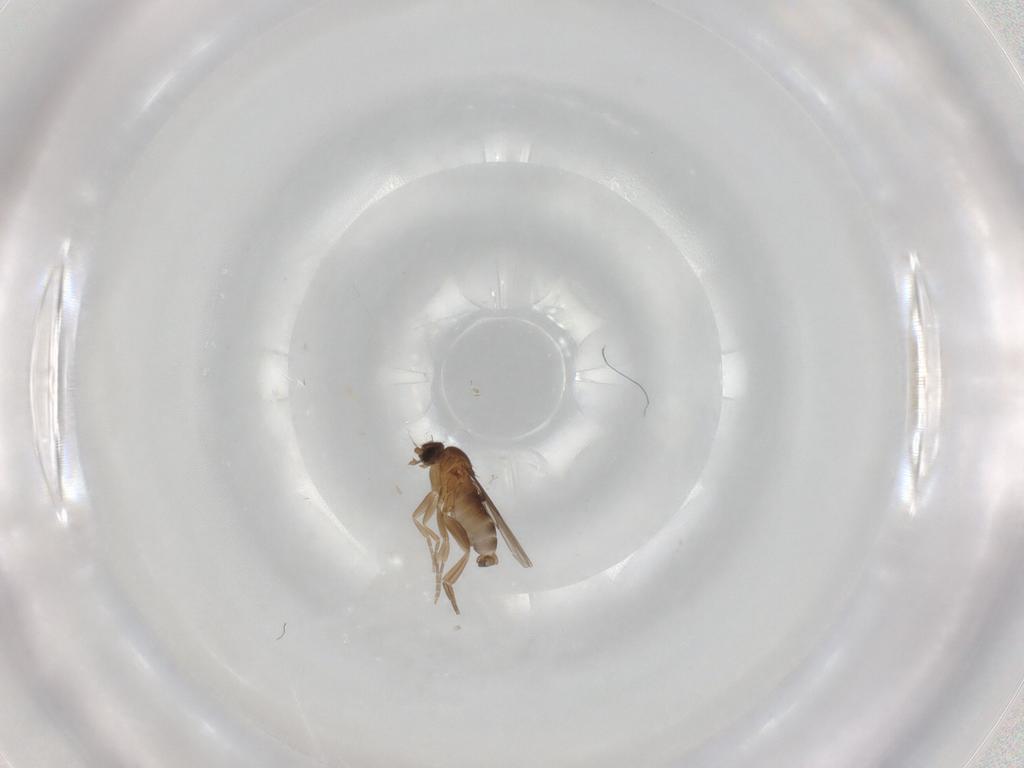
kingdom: Animalia
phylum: Arthropoda
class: Insecta
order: Diptera
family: Phoridae
